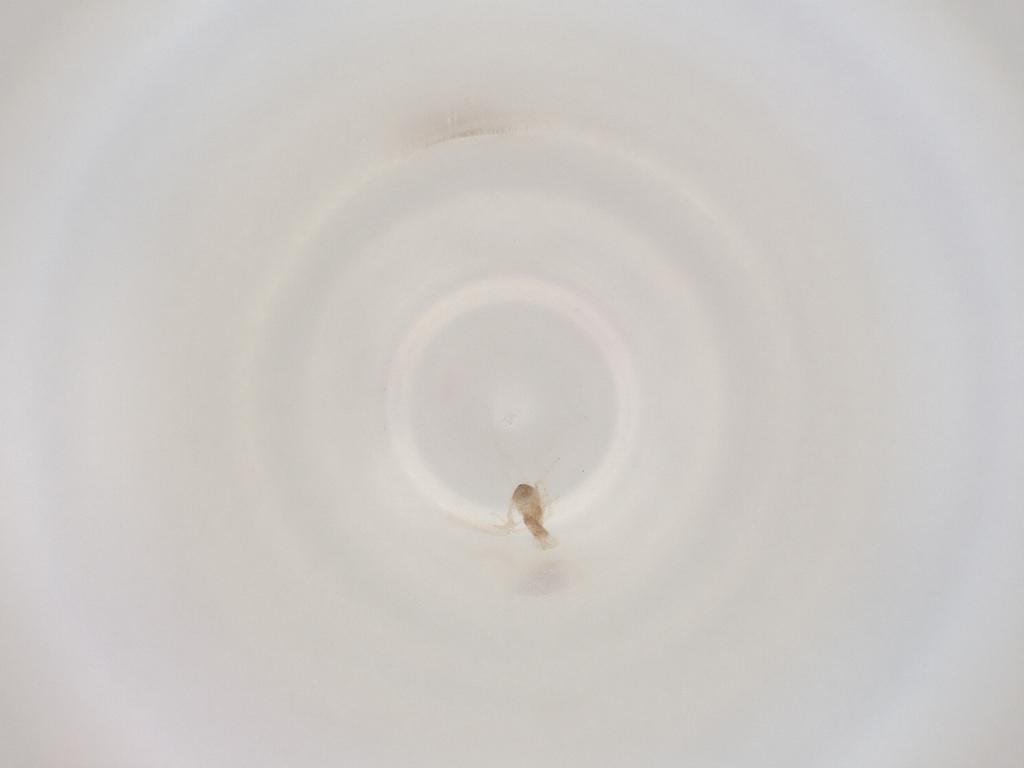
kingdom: Animalia
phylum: Arthropoda
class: Insecta
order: Diptera
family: Cecidomyiidae
